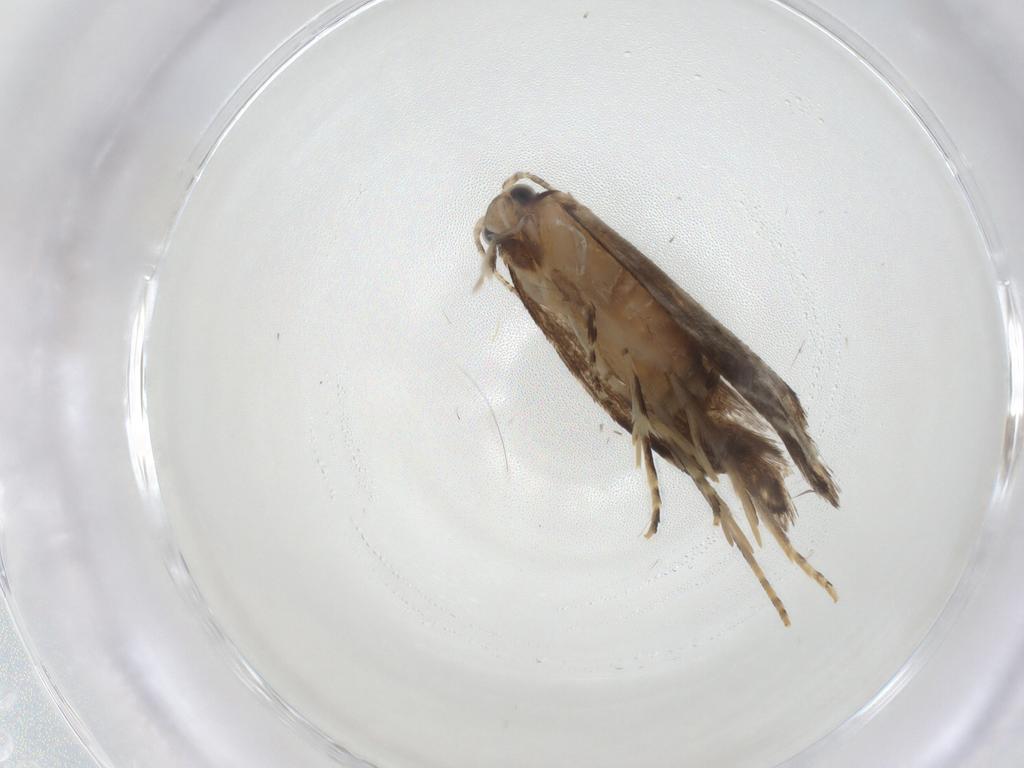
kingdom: Animalia
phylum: Arthropoda
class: Insecta
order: Lepidoptera
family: Tineidae
